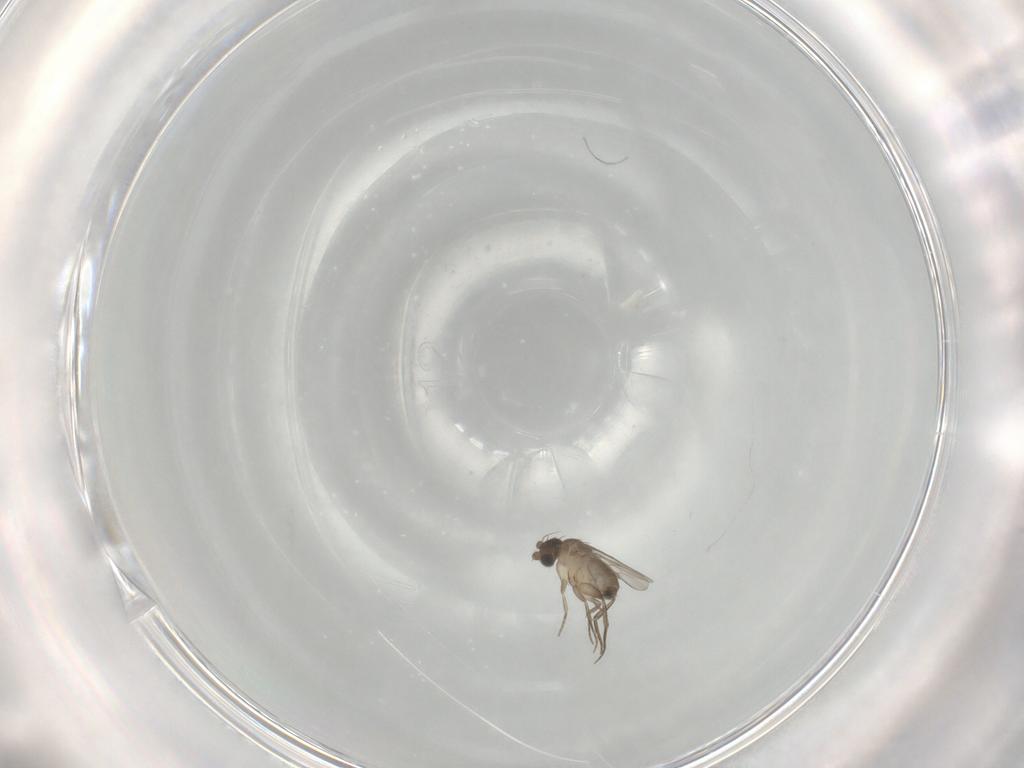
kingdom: Animalia
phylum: Arthropoda
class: Insecta
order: Diptera
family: Phoridae
